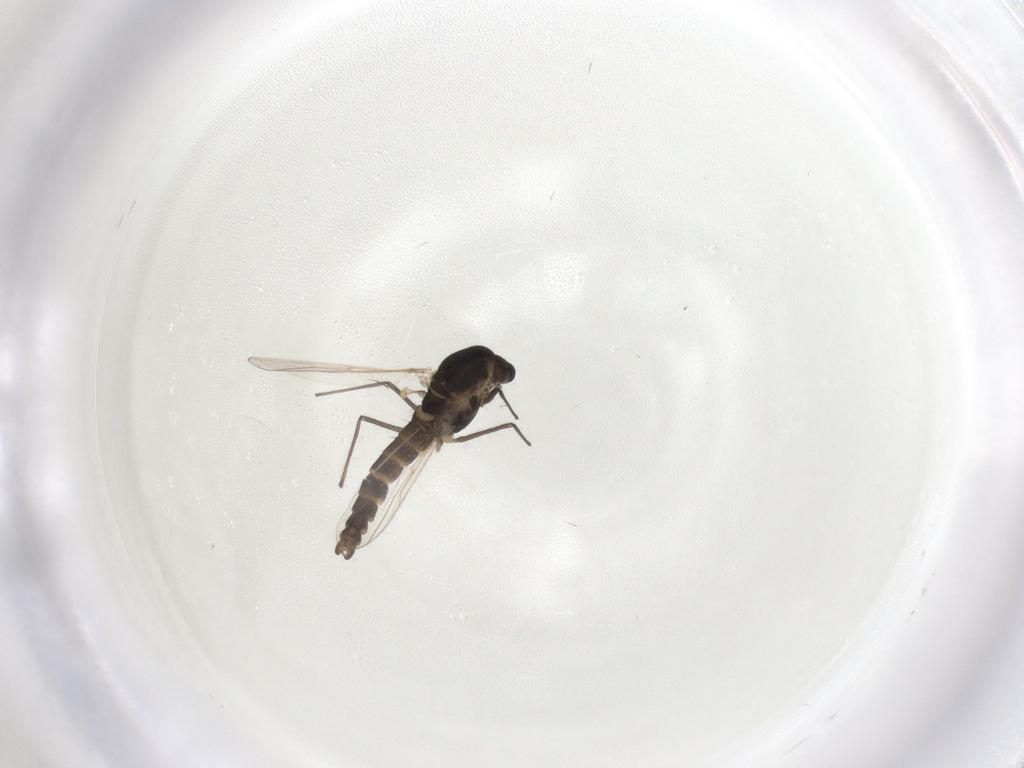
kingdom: Animalia
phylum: Arthropoda
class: Insecta
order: Diptera
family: Chironomidae
